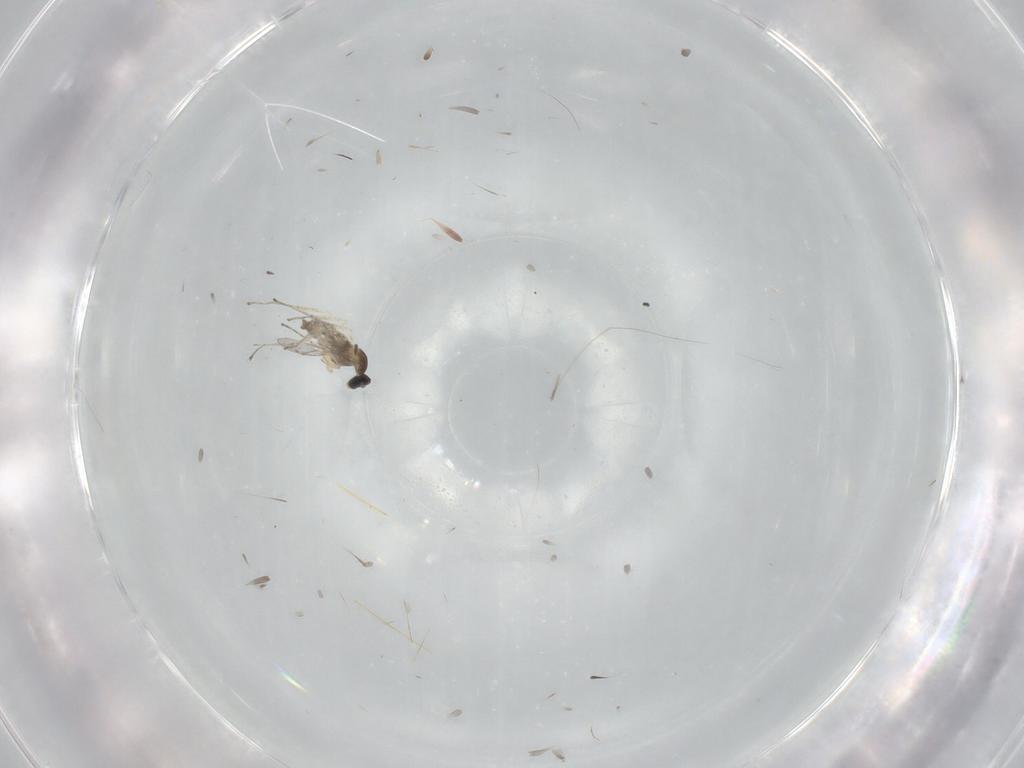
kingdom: Animalia
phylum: Arthropoda
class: Insecta
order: Diptera
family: Cecidomyiidae
